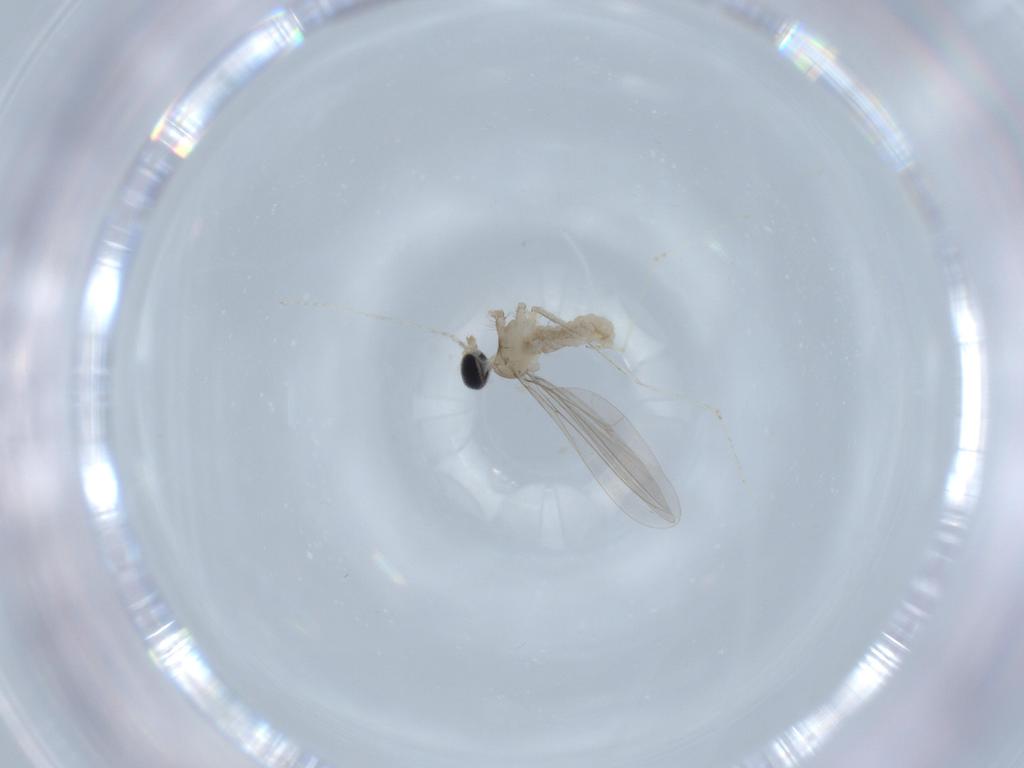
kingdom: Animalia
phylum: Arthropoda
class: Insecta
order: Diptera
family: Cecidomyiidae
